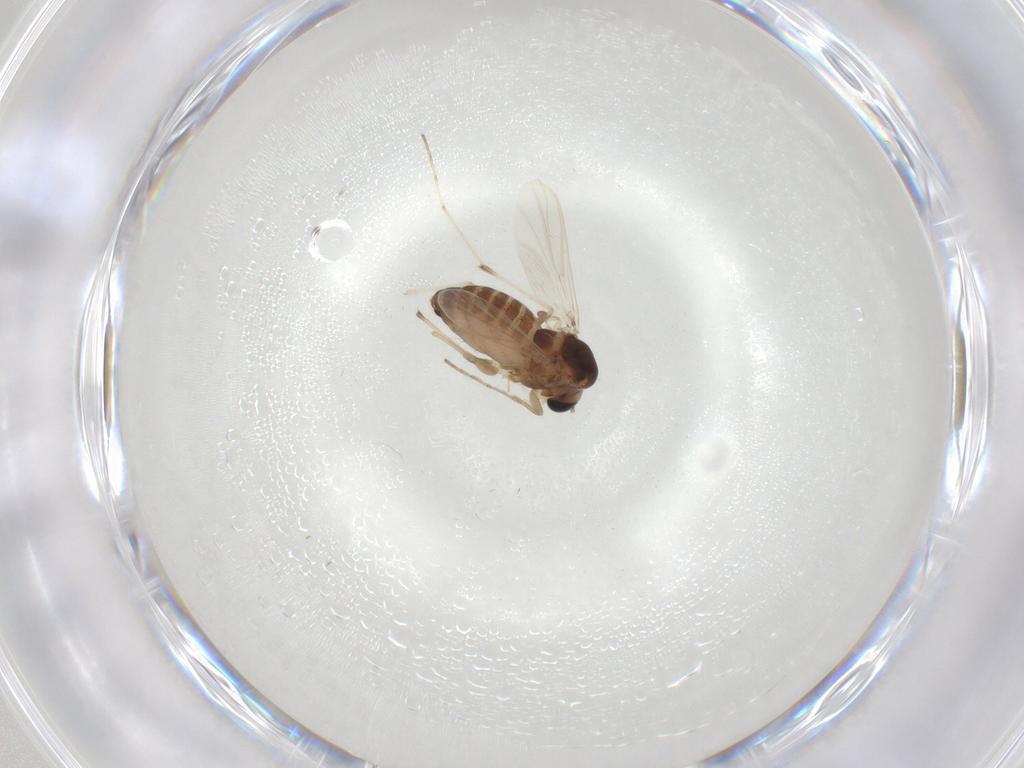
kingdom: Animalia
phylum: Arthropoda
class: Insecta
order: Diptera
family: Chironomidae
